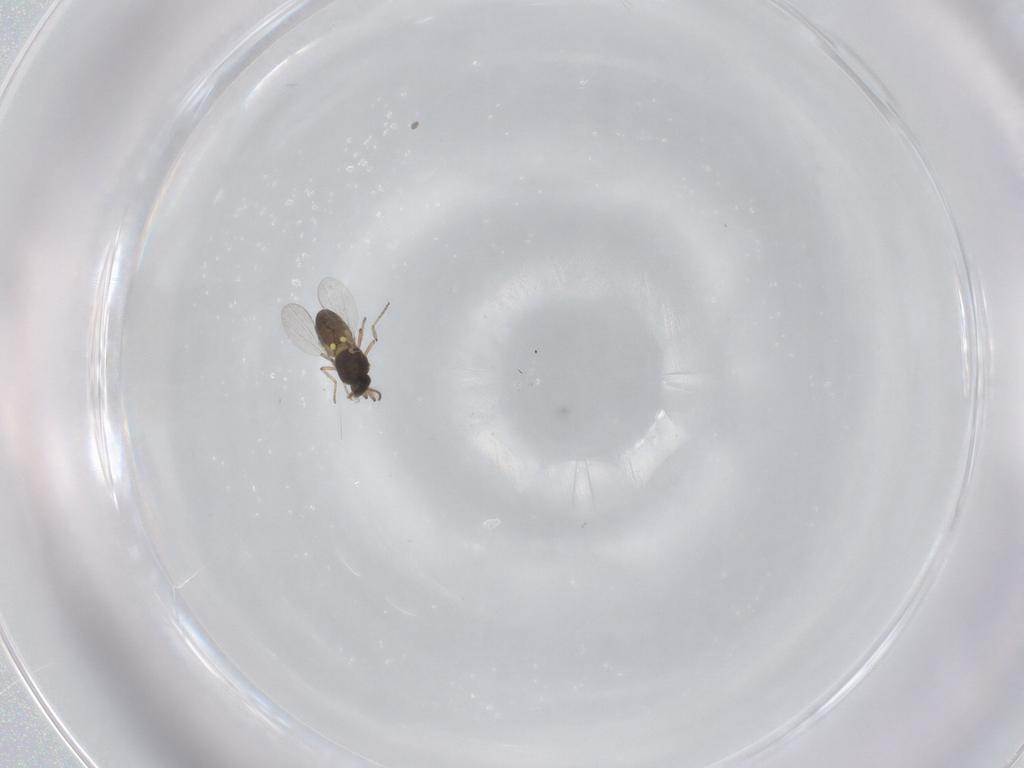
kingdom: Animalia
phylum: Arthropoda
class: Insecta
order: Diptera
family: Ceratopogonidae
